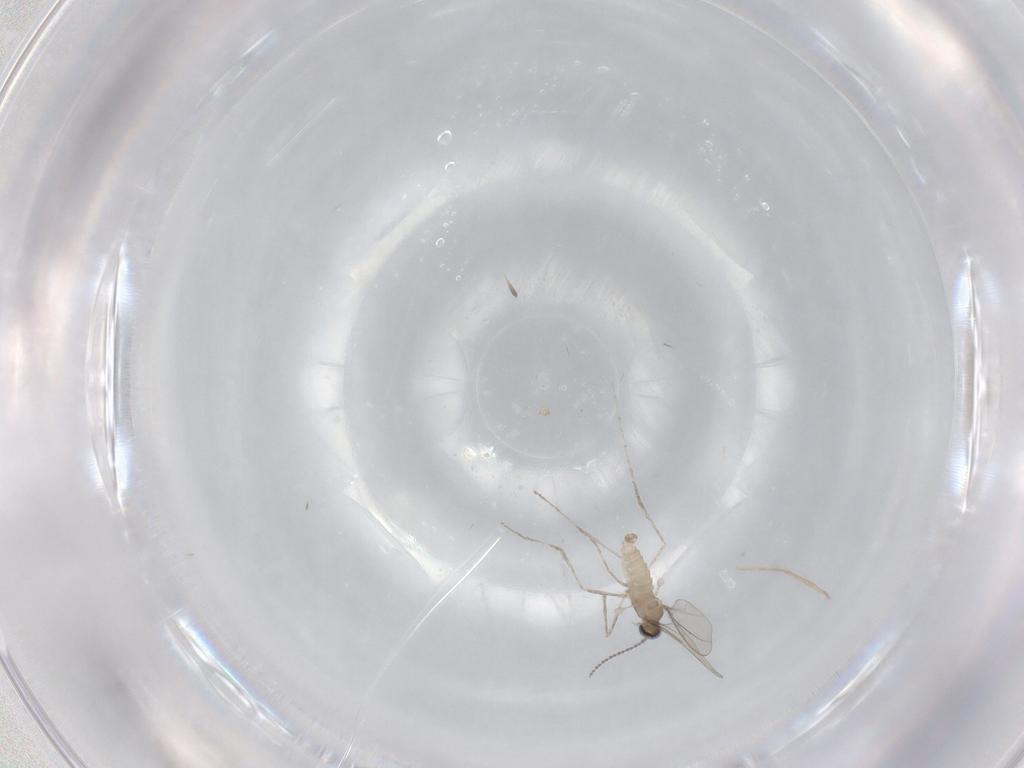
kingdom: Animalia
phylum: Arthropoda
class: Insecta
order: Diptera
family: Cecidomyiidae
